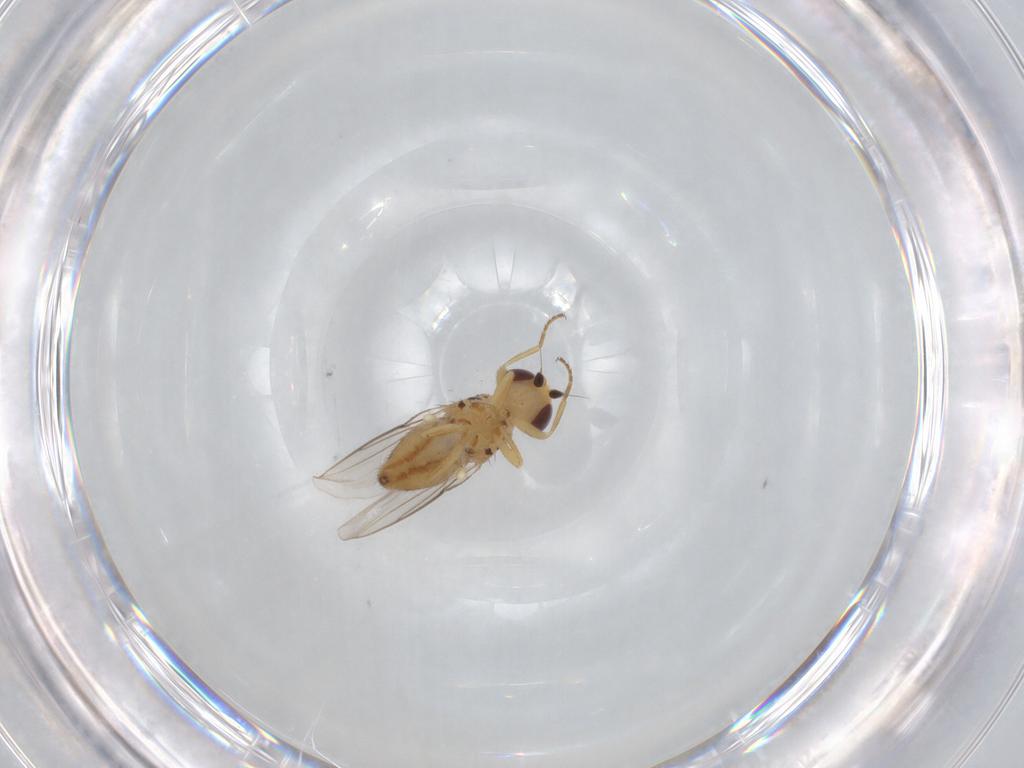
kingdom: Animalia
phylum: Arthropoda
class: Insecta
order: Diptera
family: Chloropidae
